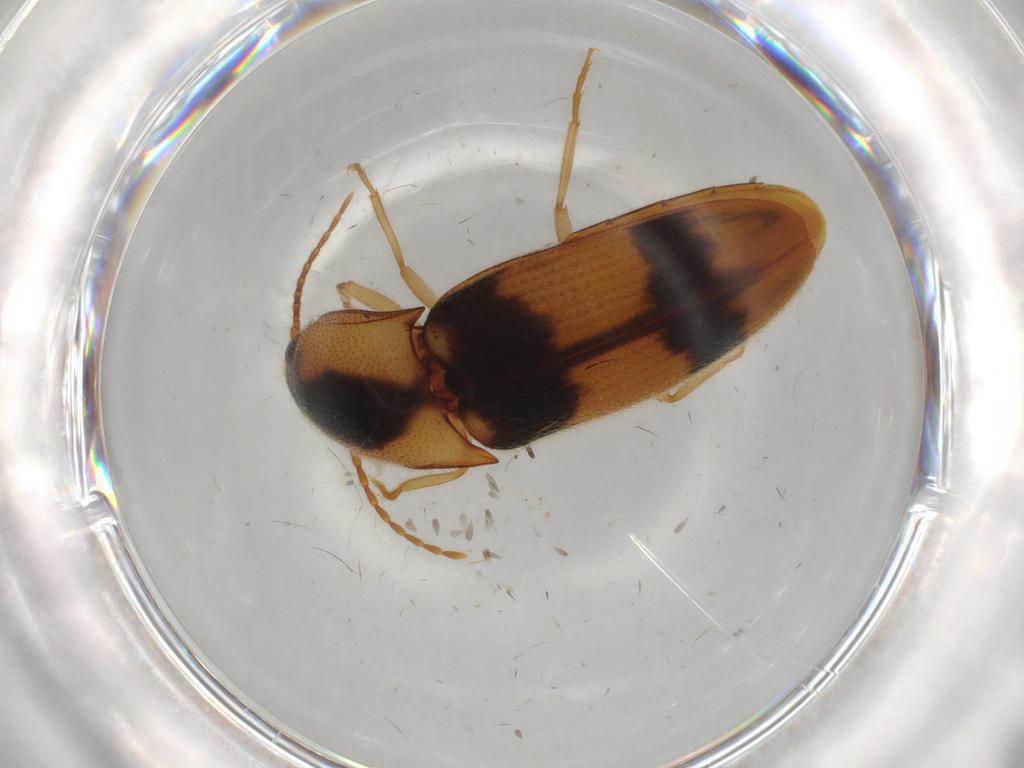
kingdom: Animalia
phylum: Arthropoda
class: Insecta
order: Coleoptera
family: Elateridae
